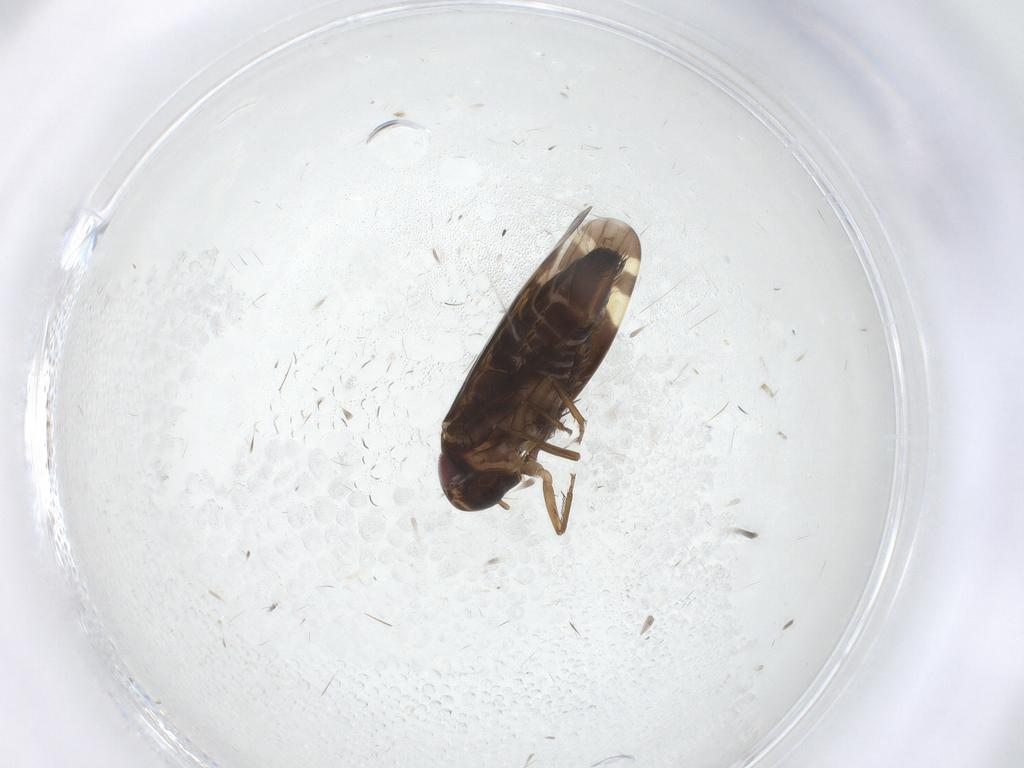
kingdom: Animalia
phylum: Arthropoda
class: Insecta
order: Hemiptera
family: Cicadellidae
